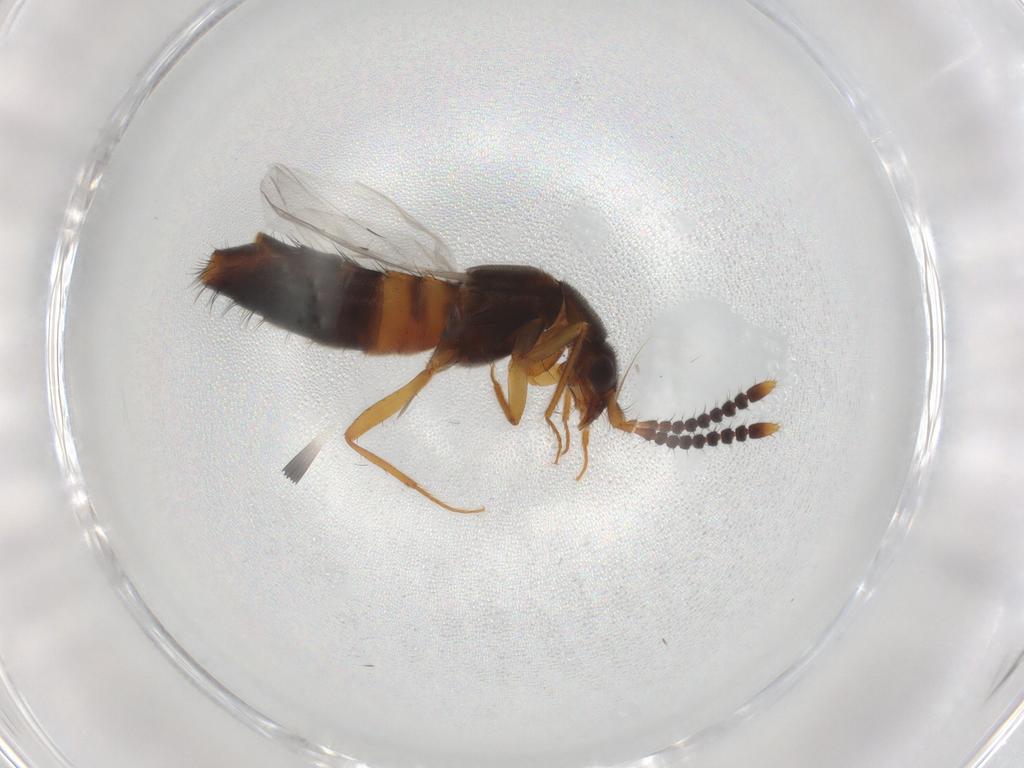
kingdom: Animalia
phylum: Arthropoda
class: Insecta
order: Coleoptera
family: Staphylinidae
